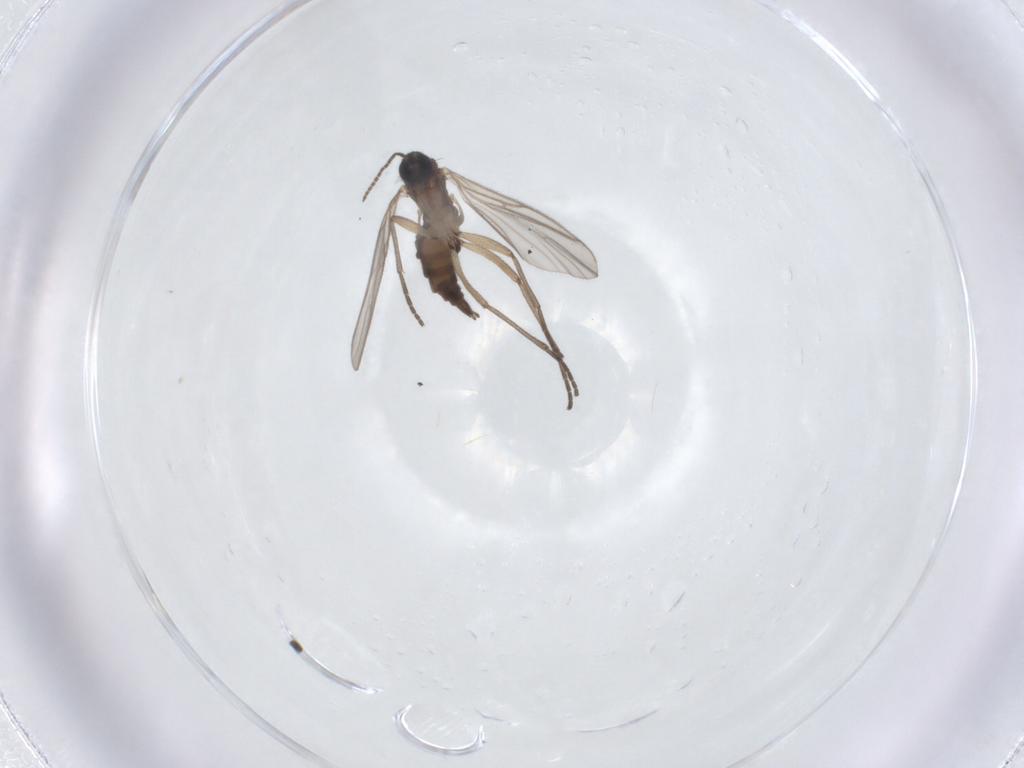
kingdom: Animalia
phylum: Arthropoda
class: Insecta
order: Diptera
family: Sciaridae
